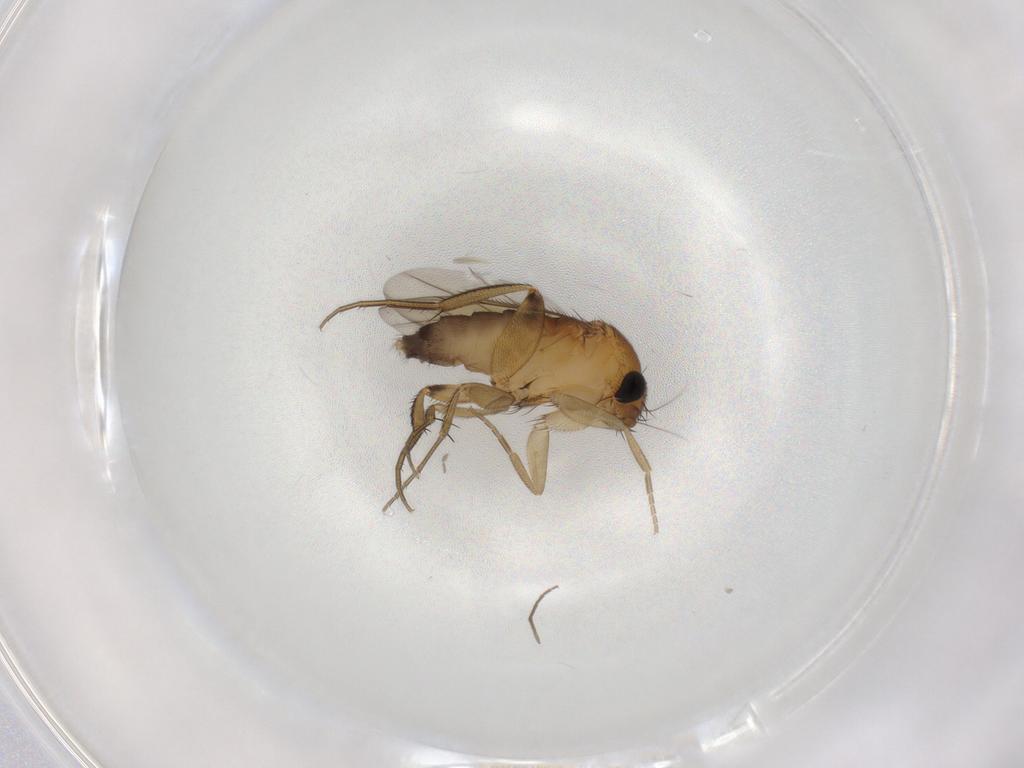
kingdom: Animalia
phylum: Arthropoda
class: Insecta
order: Diptera
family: Phoridae
